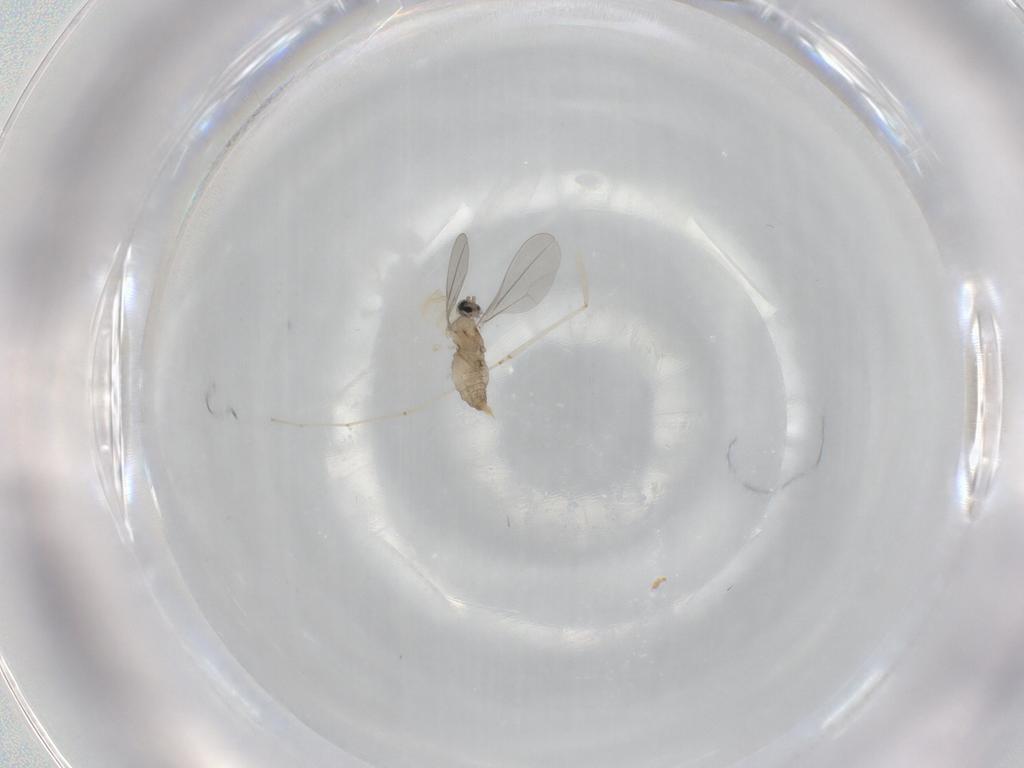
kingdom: Animalia
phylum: Arthropoda
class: Insecta
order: Diptera
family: Cecidomyiidae
